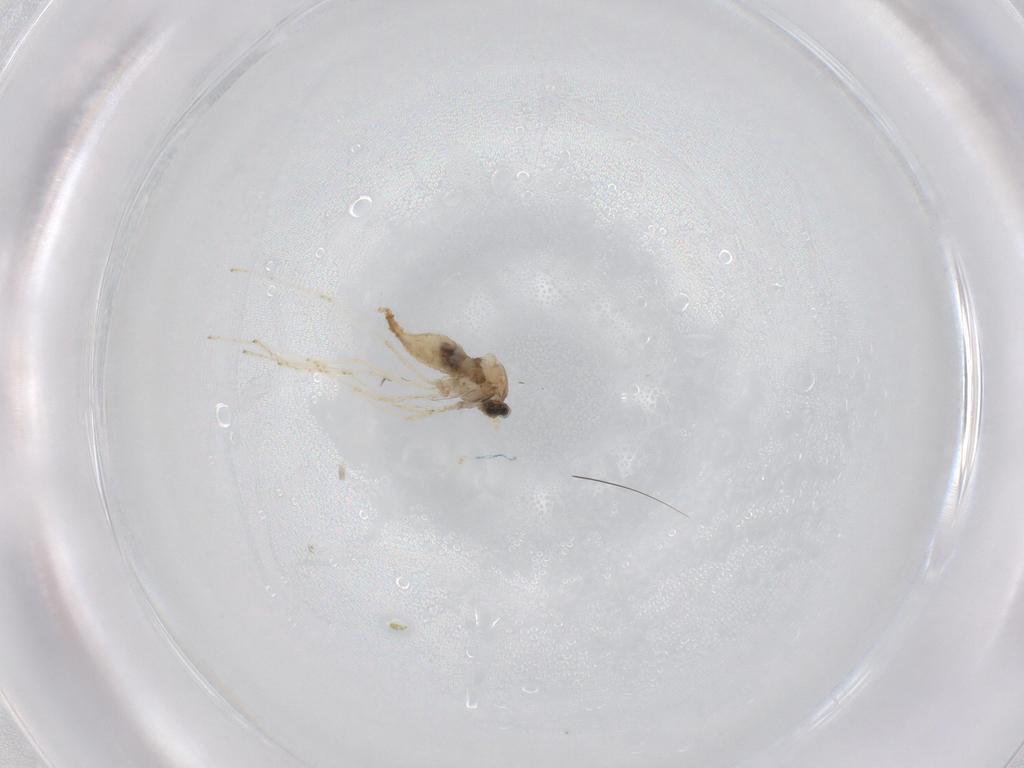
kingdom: Animalia
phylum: Arthropoda
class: Insecta
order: Diptera
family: Cecidomyiidae
